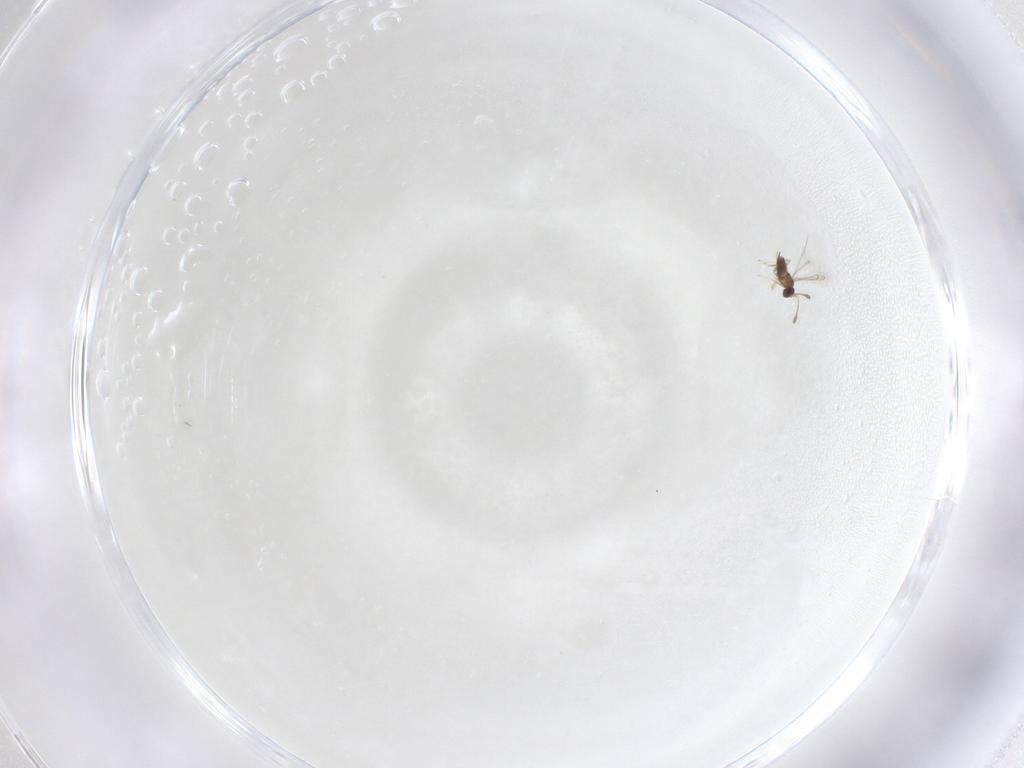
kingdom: Animalia
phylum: Arthropoda
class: Insecta
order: Hymenoptera
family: Mymaridae
